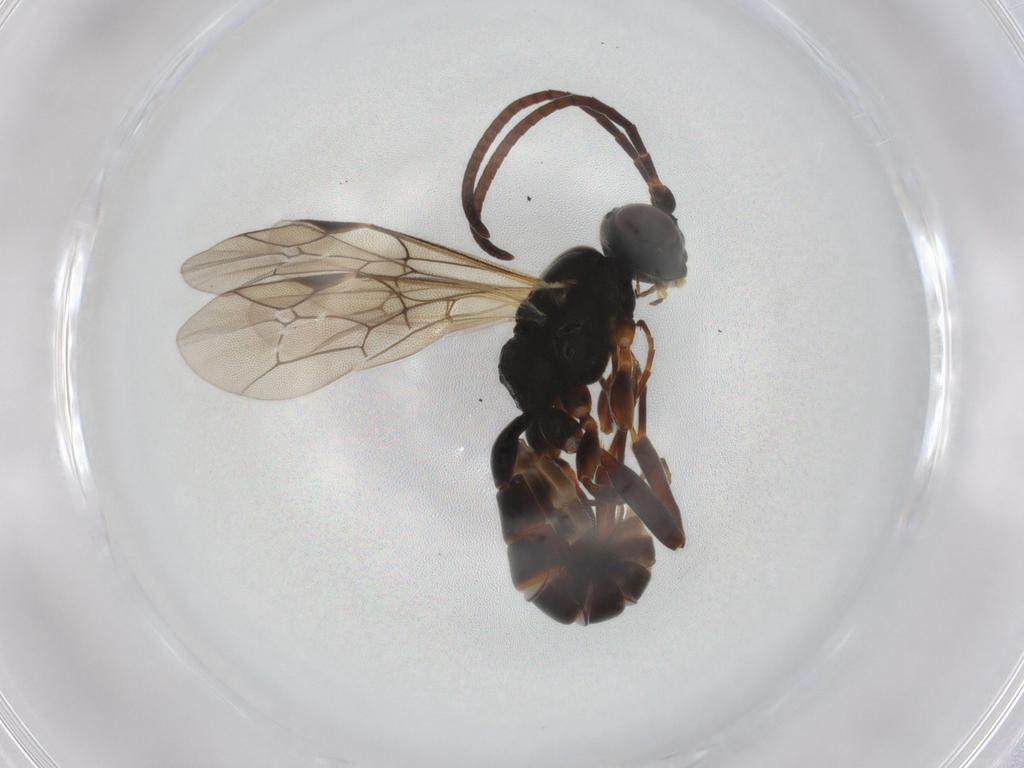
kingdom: Animalia
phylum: Arthropoda
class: Insecta
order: Hymenoptera
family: Ichneumonidae
